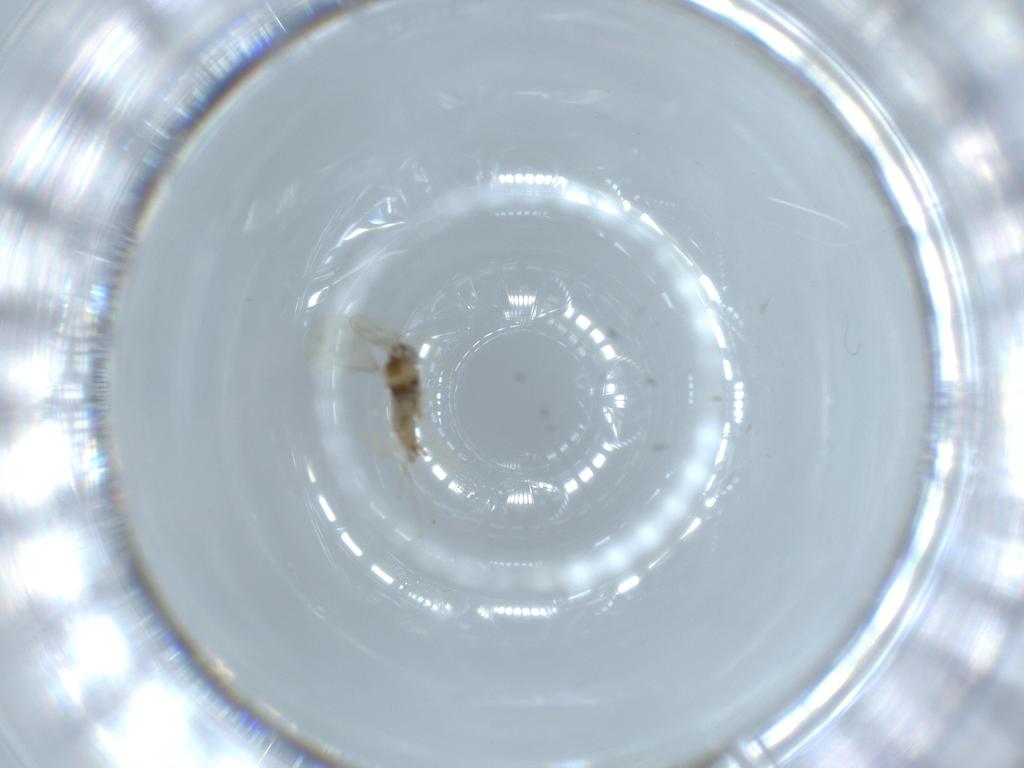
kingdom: Animalia
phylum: Arthropoda
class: Insecta
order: Diptera
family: Cecidomyiidae
